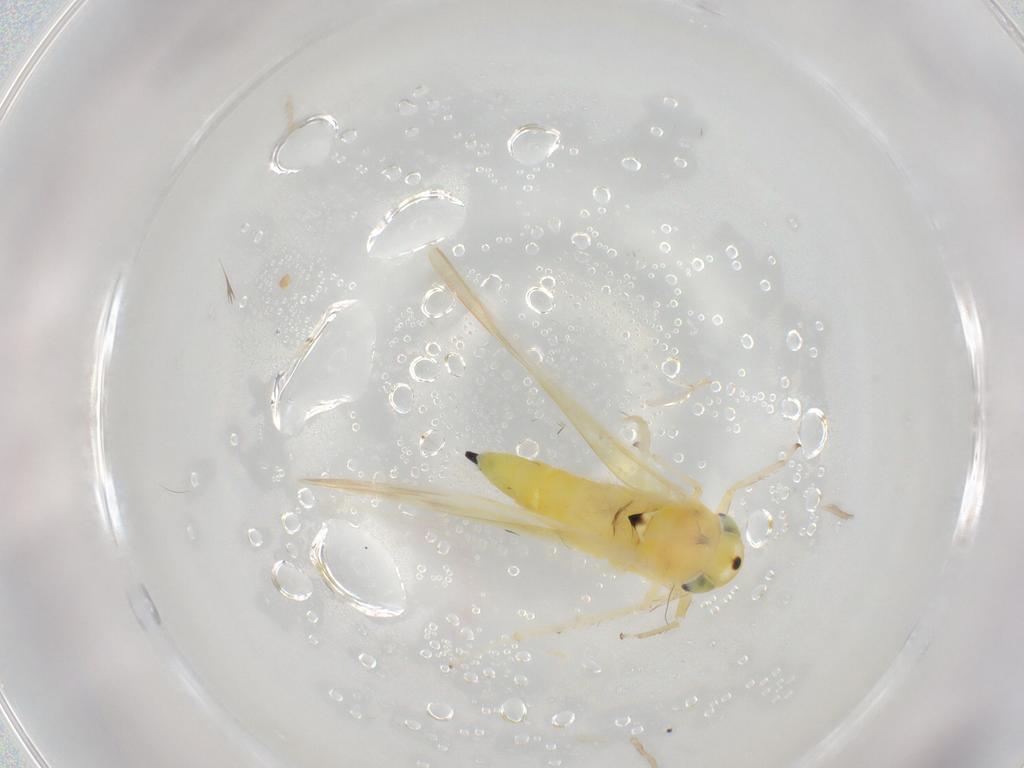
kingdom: Animalia
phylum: Arthropoda
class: Insecta
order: Hemiptera
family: Cicadellidae
